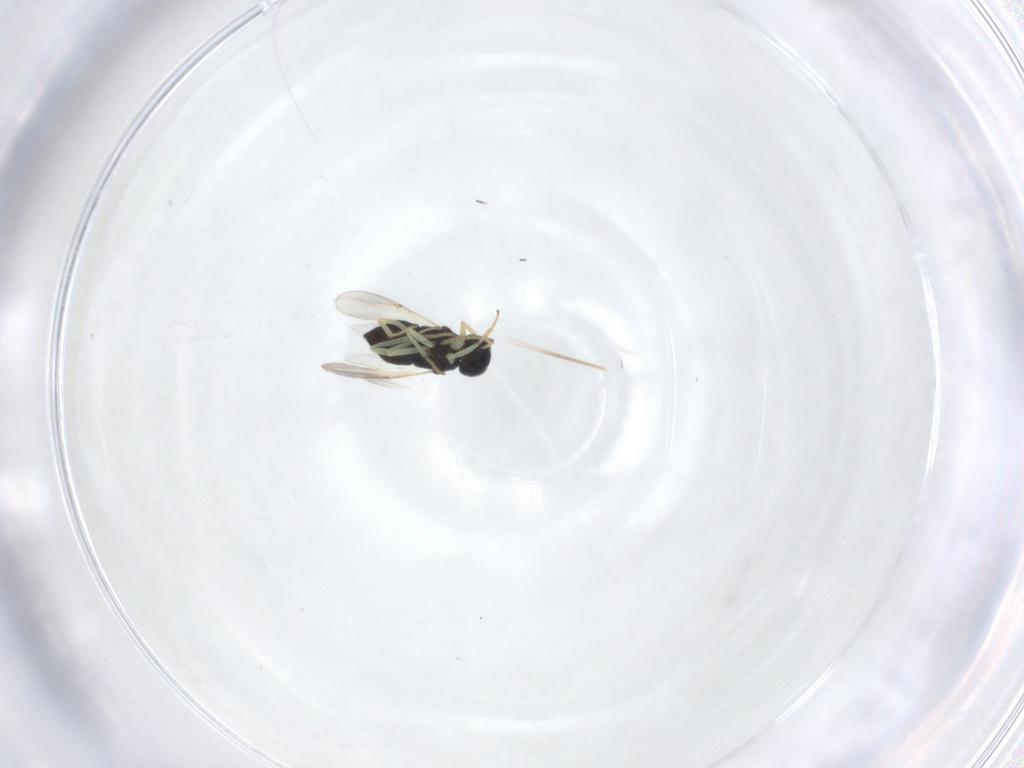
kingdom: Animalia
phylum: Arthropoda
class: Insecta
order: Hymenoptera
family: Encyrtidae
